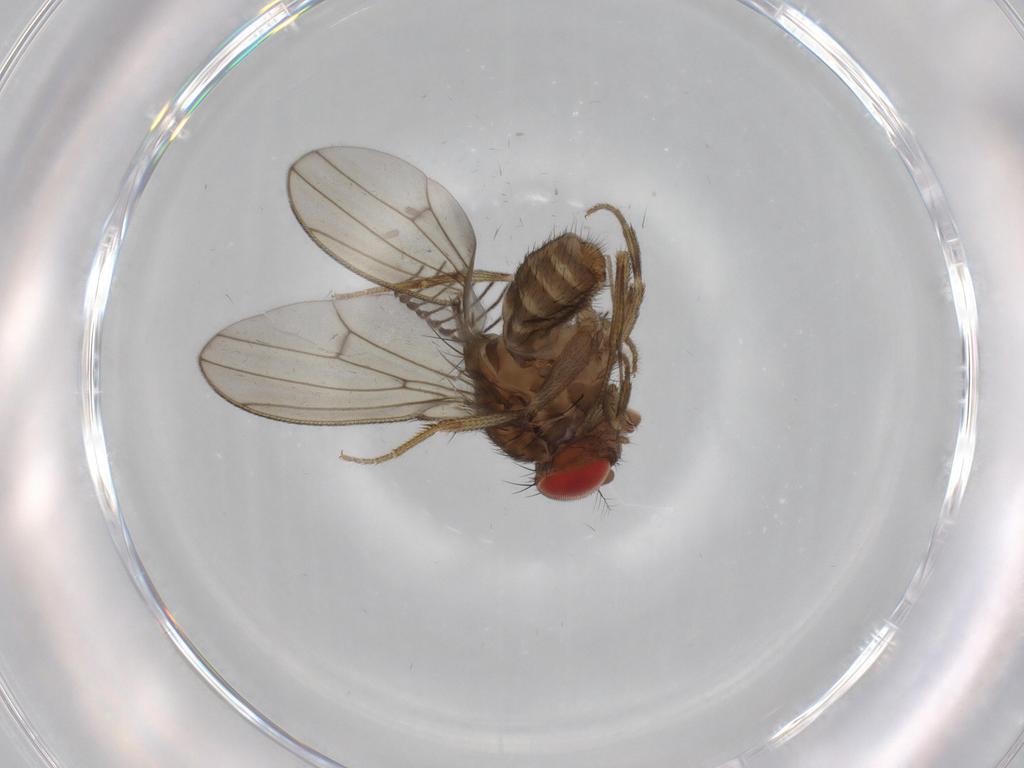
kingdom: Animalia
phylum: Arthropoda
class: Insecta
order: Diptera
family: Drosophilidae
